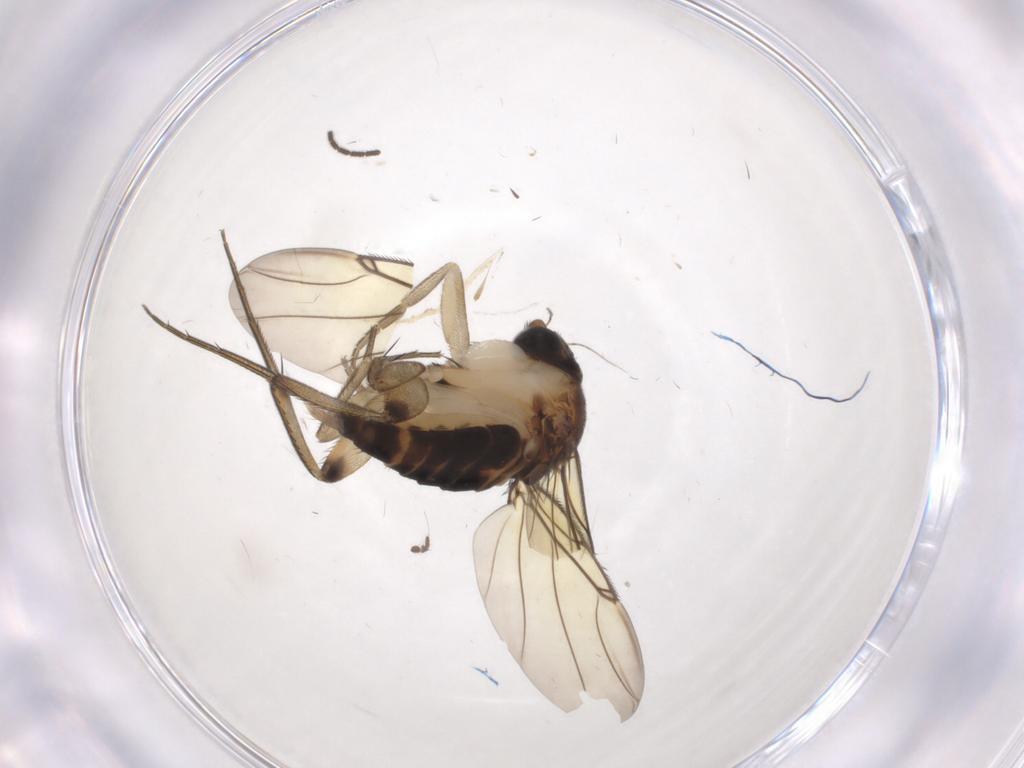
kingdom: Animalia
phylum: Arthropoda
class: Insecta
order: Diptera
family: Phoridae
